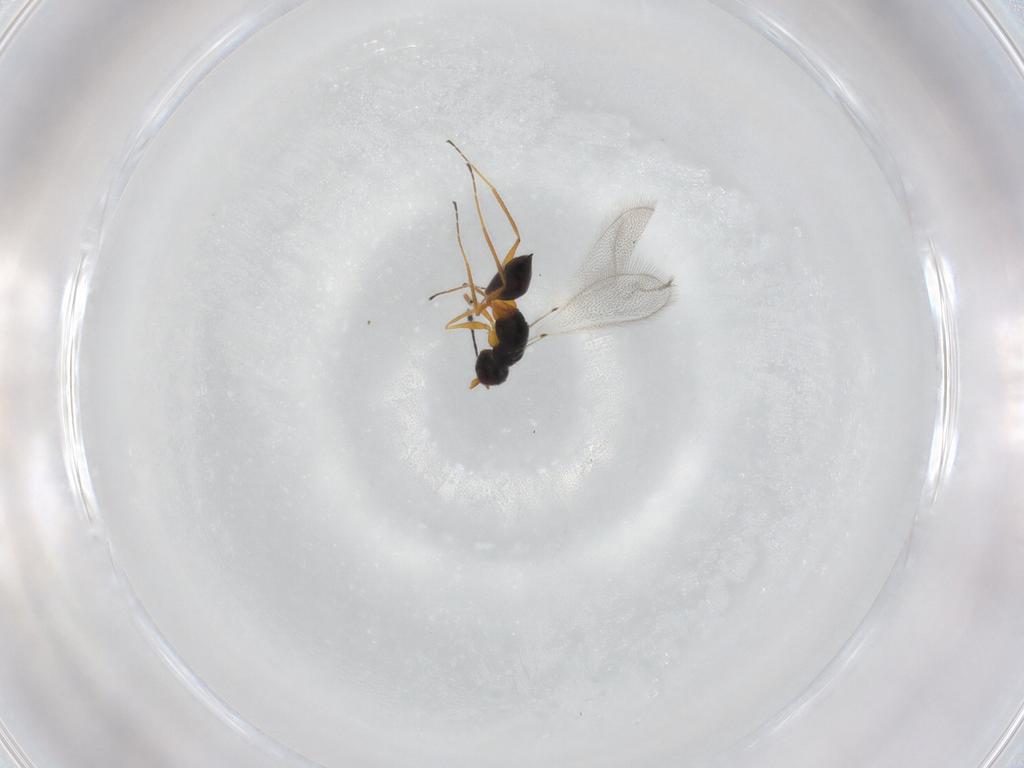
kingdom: Animalia
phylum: Arthropoda
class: Insecta
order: Hymenoptera
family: Mymaridae
